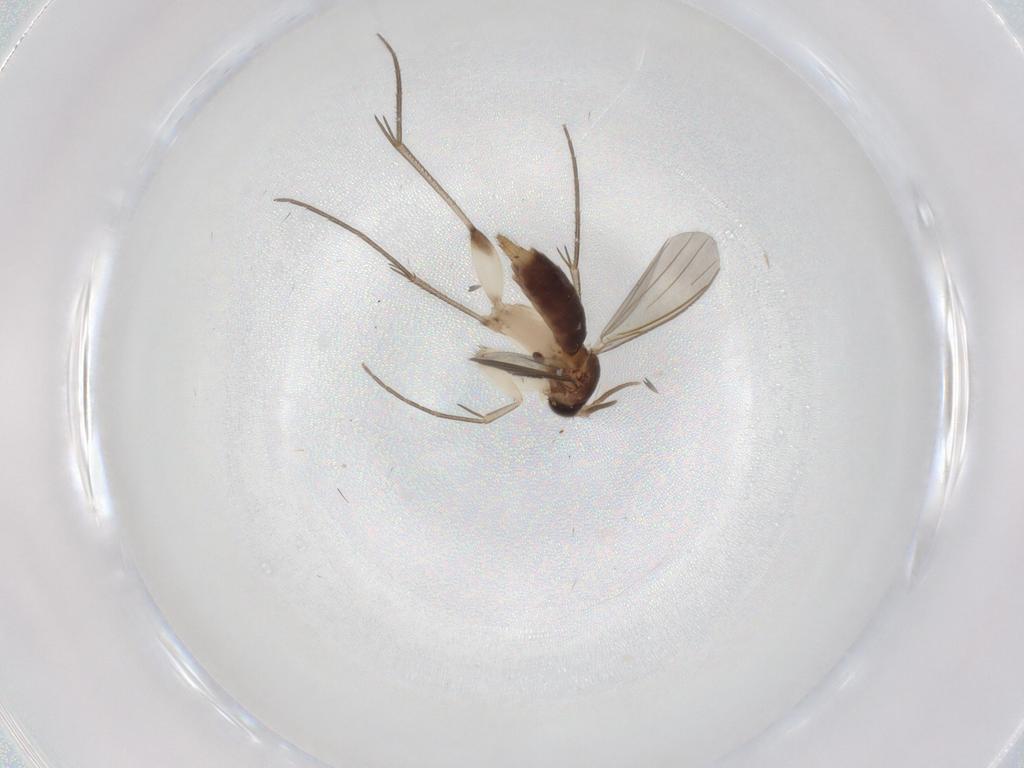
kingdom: Animalia
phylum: Arthropoda
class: Insecta
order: Diptera
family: Mycetophilidae
